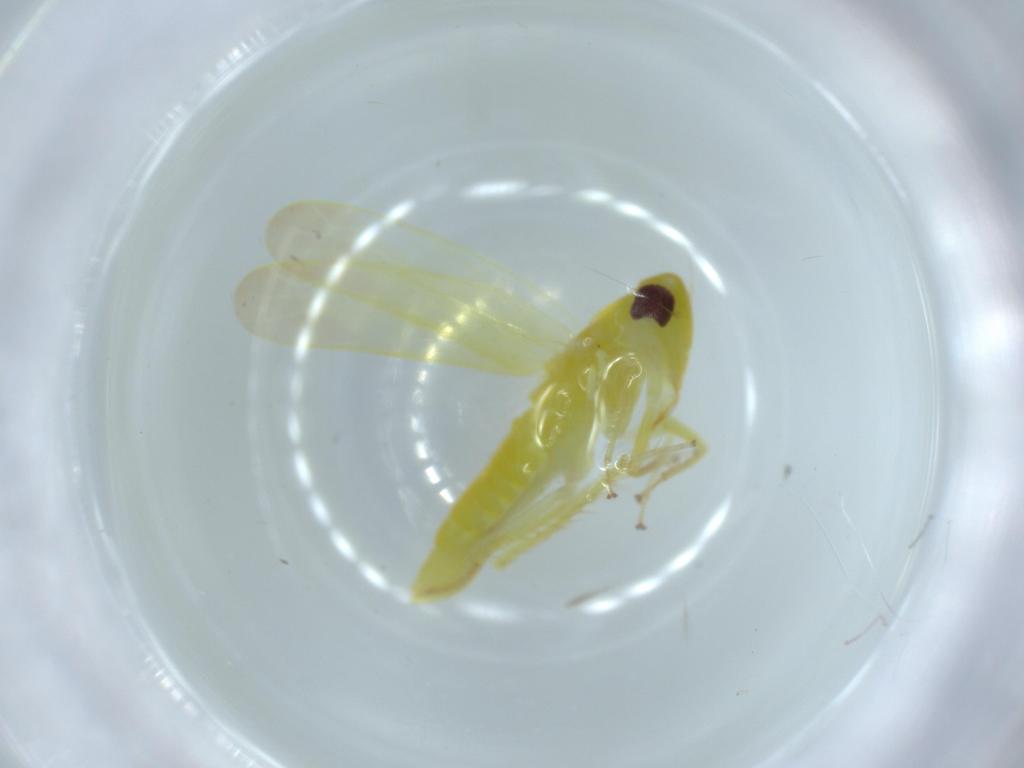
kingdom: Animalia
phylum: Arthropoda
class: Insecta
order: Hemiptera
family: Cicadellidae
